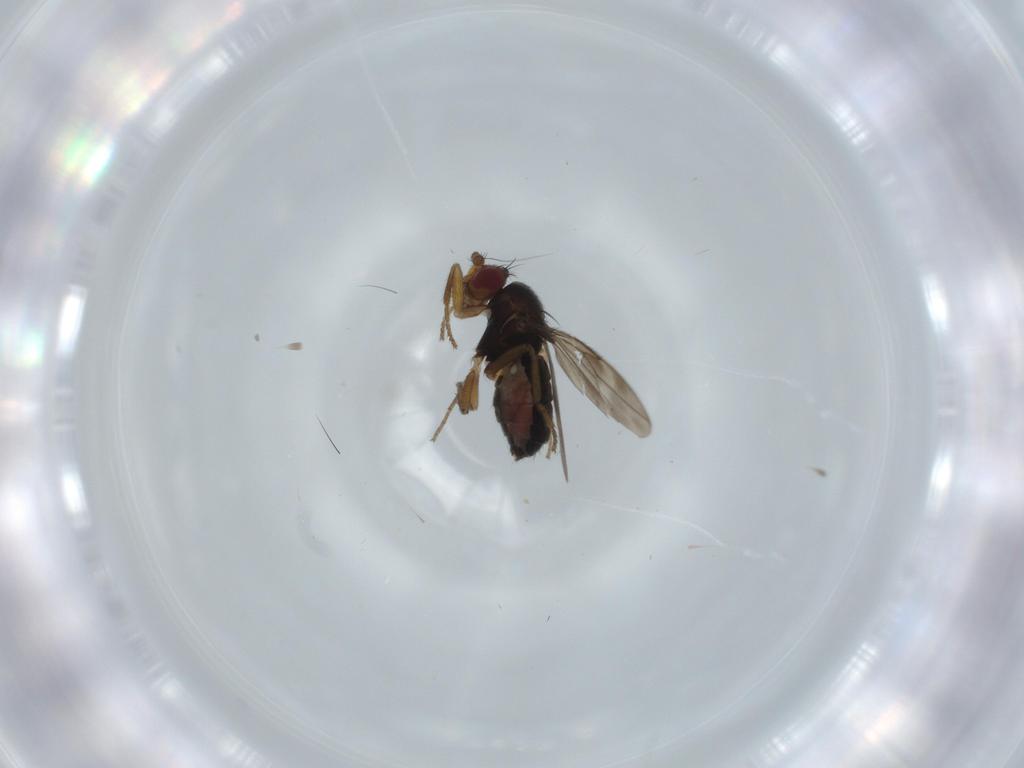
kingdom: Animalia
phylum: Arthropoda
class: Insecta
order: Diptera
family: Sphaeroceridae
